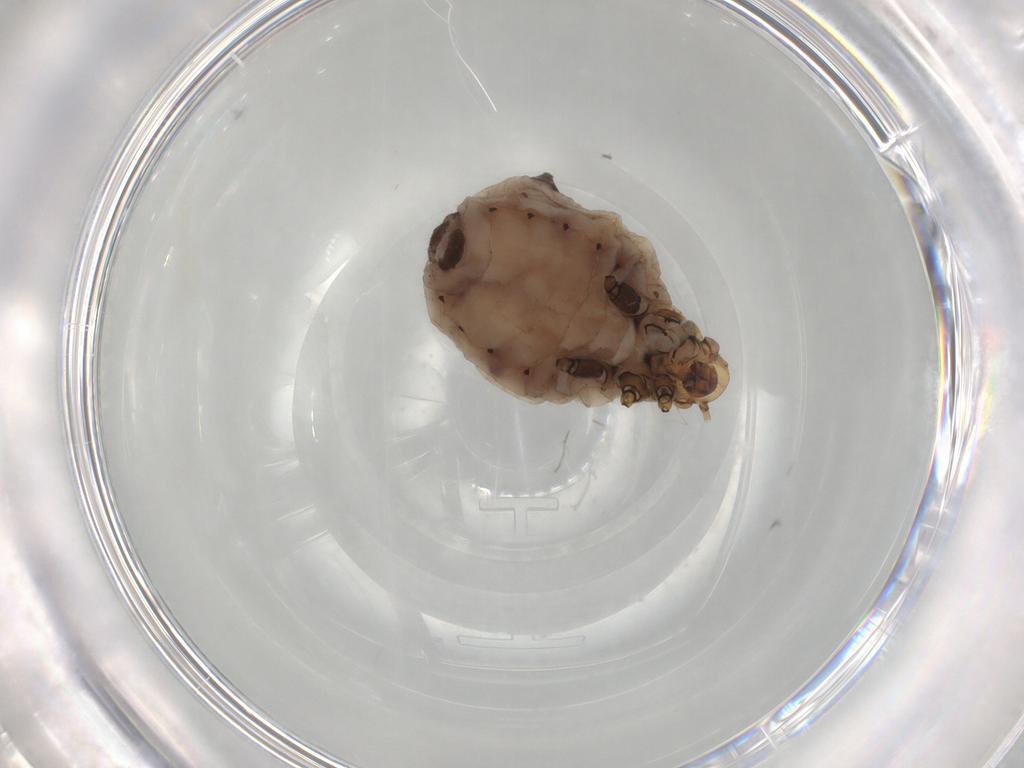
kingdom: Animalia
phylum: Arthropoda
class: Insecta
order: Hemiptera
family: Aphididae
